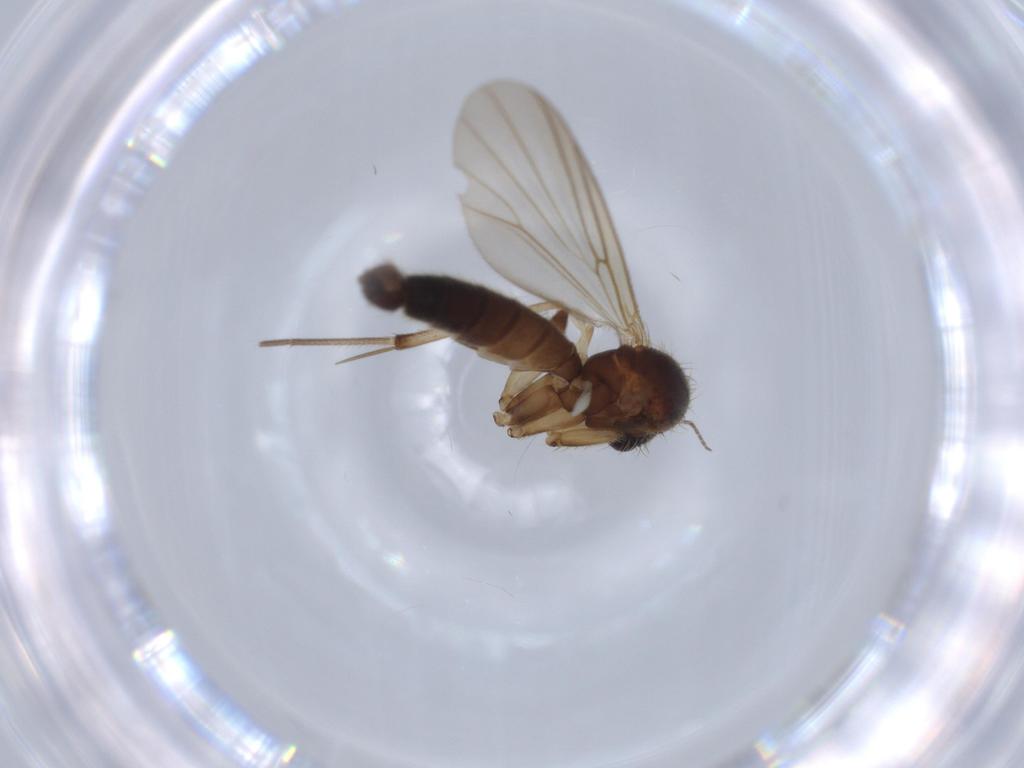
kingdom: Animalia
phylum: Arthropoda
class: Insecta
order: Diptera
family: Mycetophilidae
